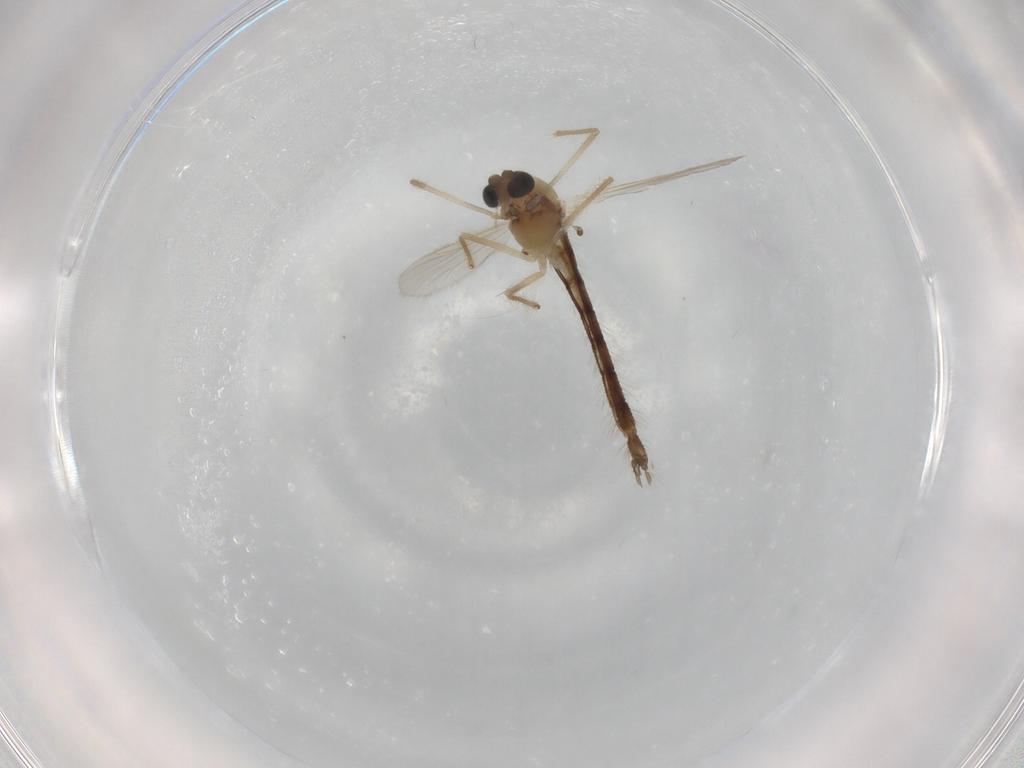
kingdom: Animalia
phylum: Arthropoda
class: Insecta
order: Diptera
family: Chironomidae
